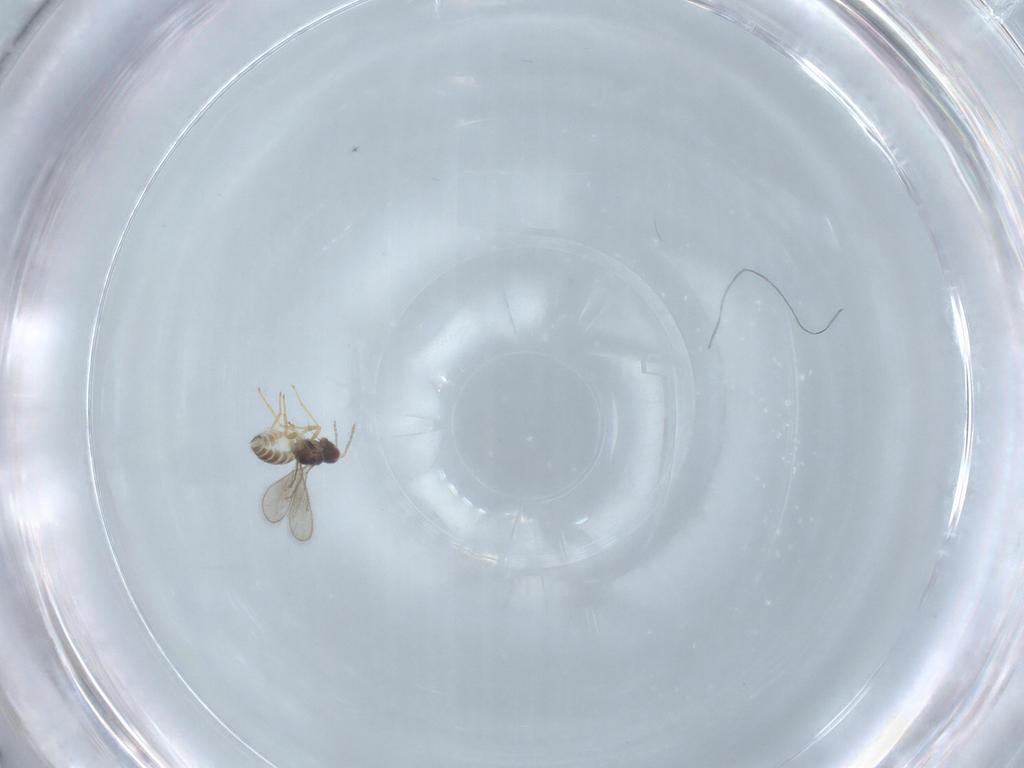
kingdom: Animalia
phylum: Arthropoda
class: Insecta
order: Hymenoptera
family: Eulophidae
